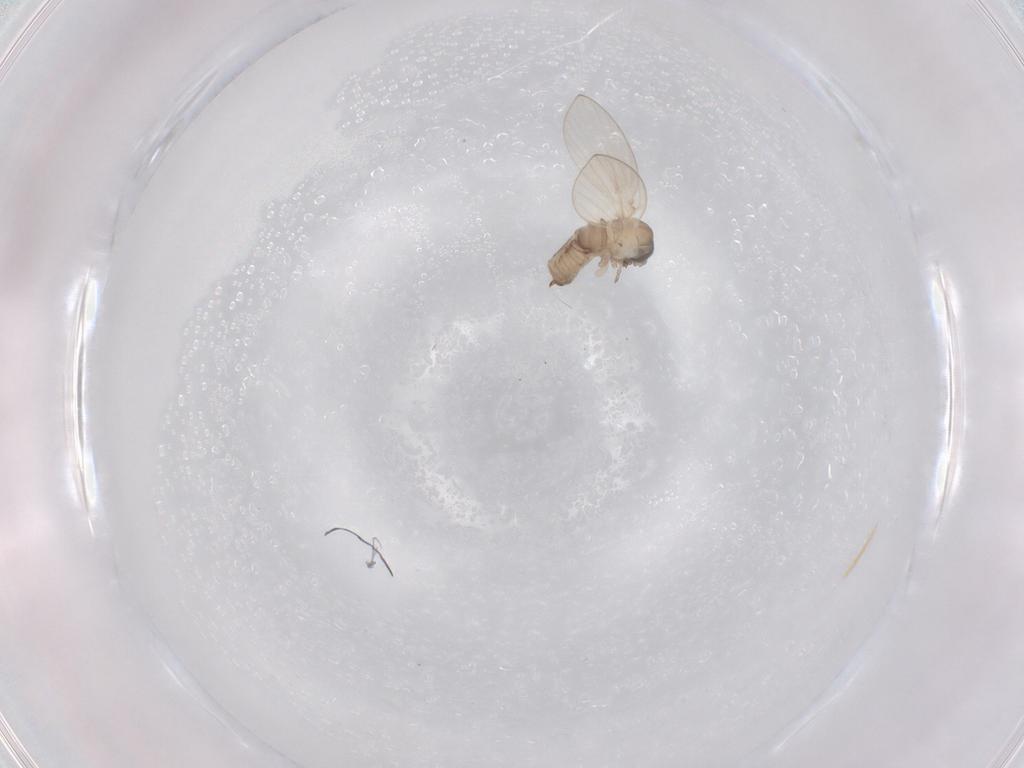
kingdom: Animalia
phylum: Arthropoda
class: Insecta
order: Diptera
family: Psychodidae
